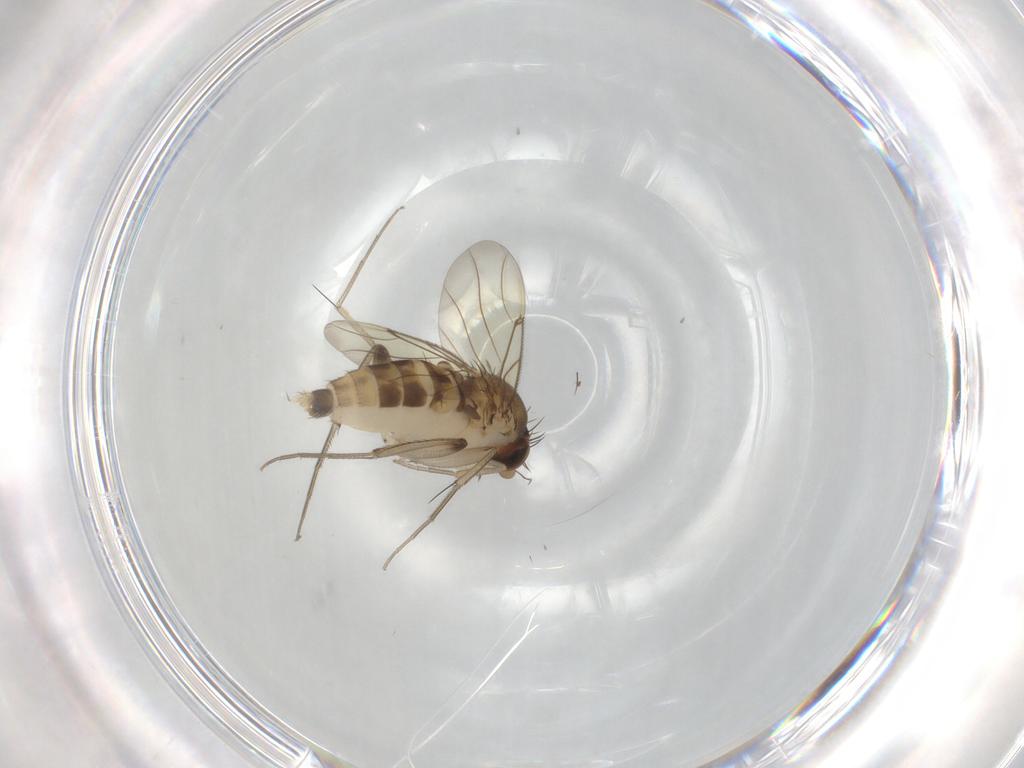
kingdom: Animalia
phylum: Arthropoda
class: Insecta
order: Diptera
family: Phoridae
